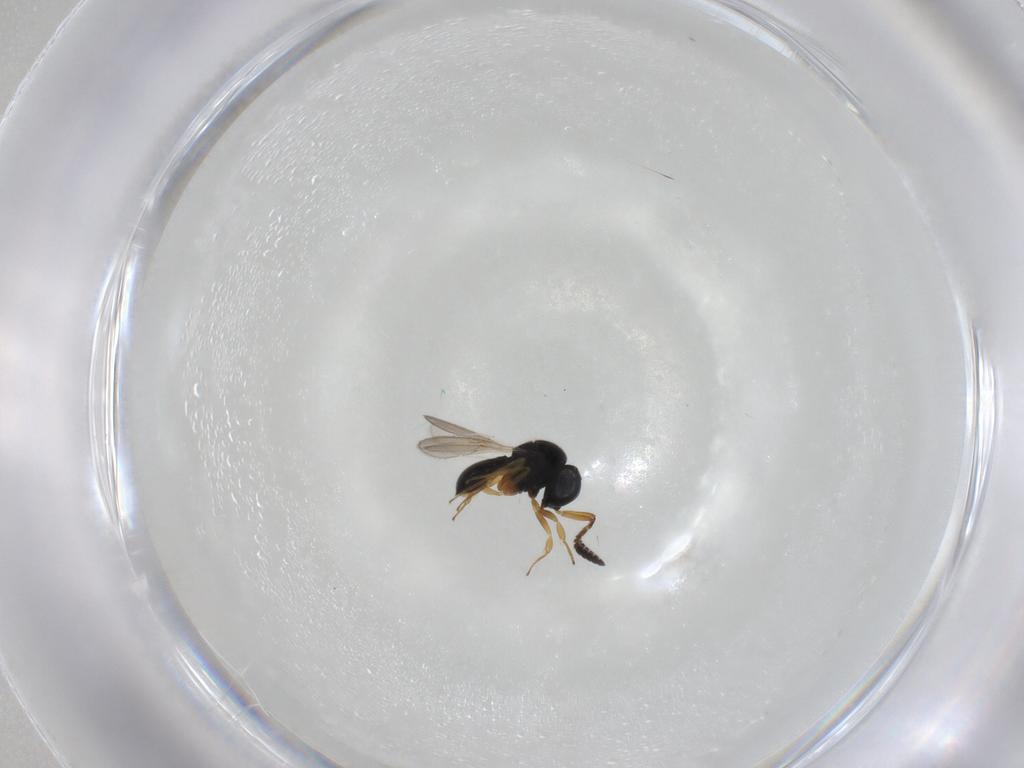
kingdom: Animalia
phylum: Arthropoda
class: Insecta
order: Hymenoptera
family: Scelionidae
